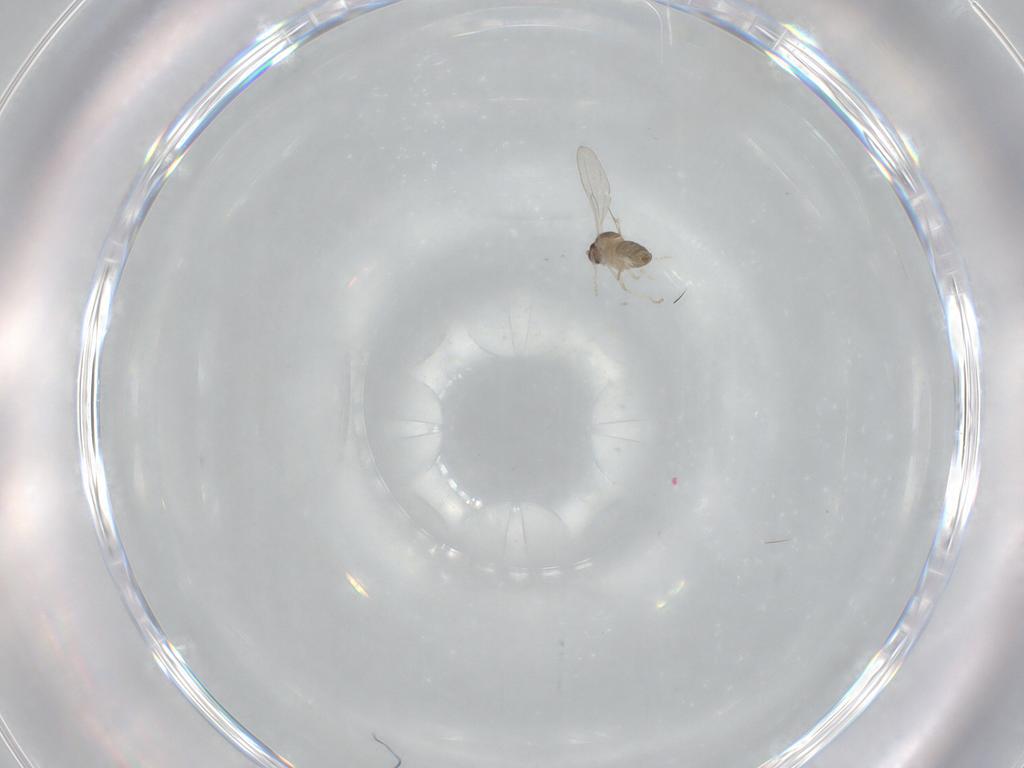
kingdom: Animalia
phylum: Arthropoda
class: Insecta
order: Diptera
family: Cecidomyiidae
